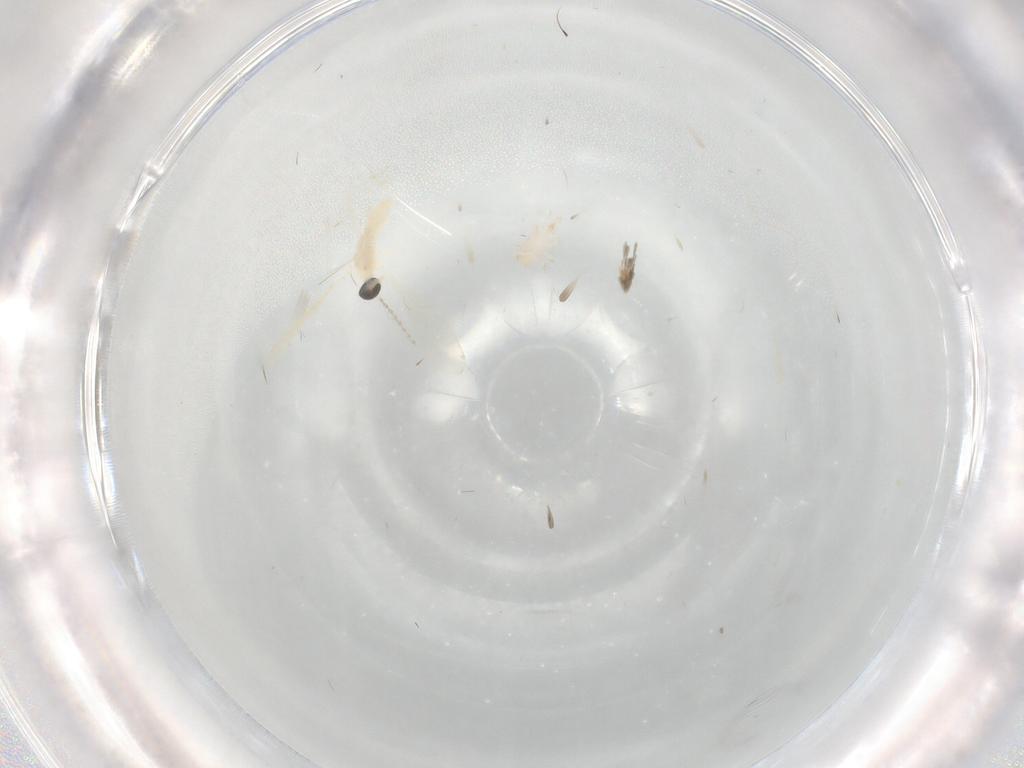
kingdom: Animalia
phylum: Arthropoda
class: Insecta
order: Diptera
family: Cecidomyiidae
